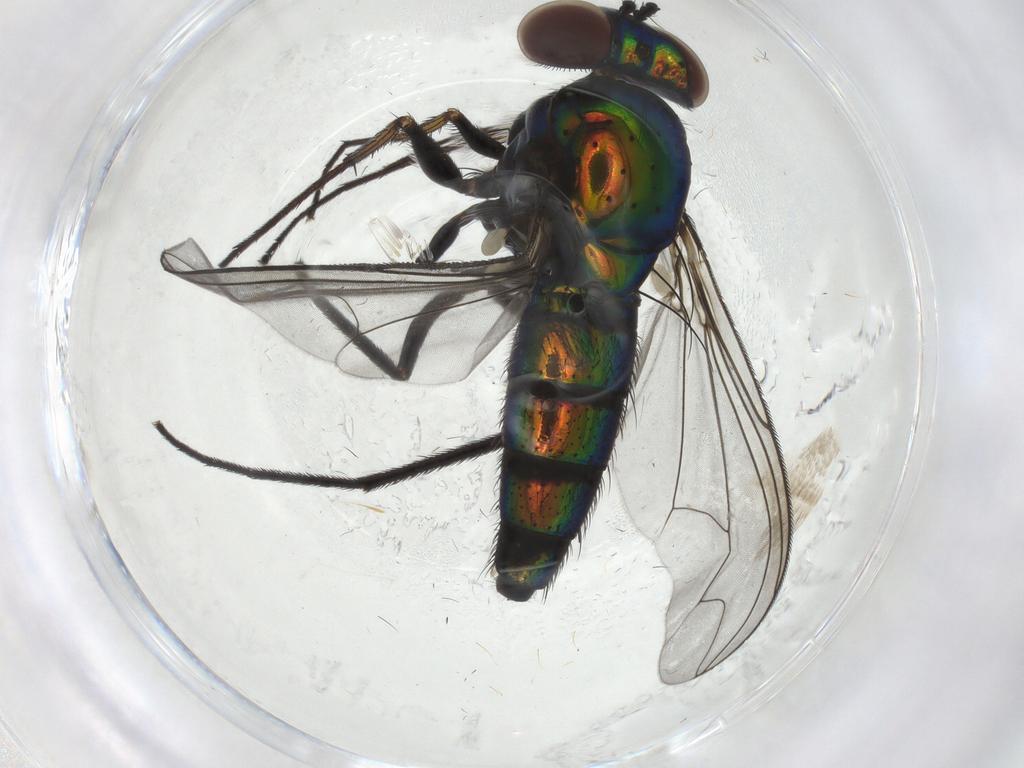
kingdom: Animalia
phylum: Arthropoda
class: Insecta
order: Diptera
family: Dolichopodidae
